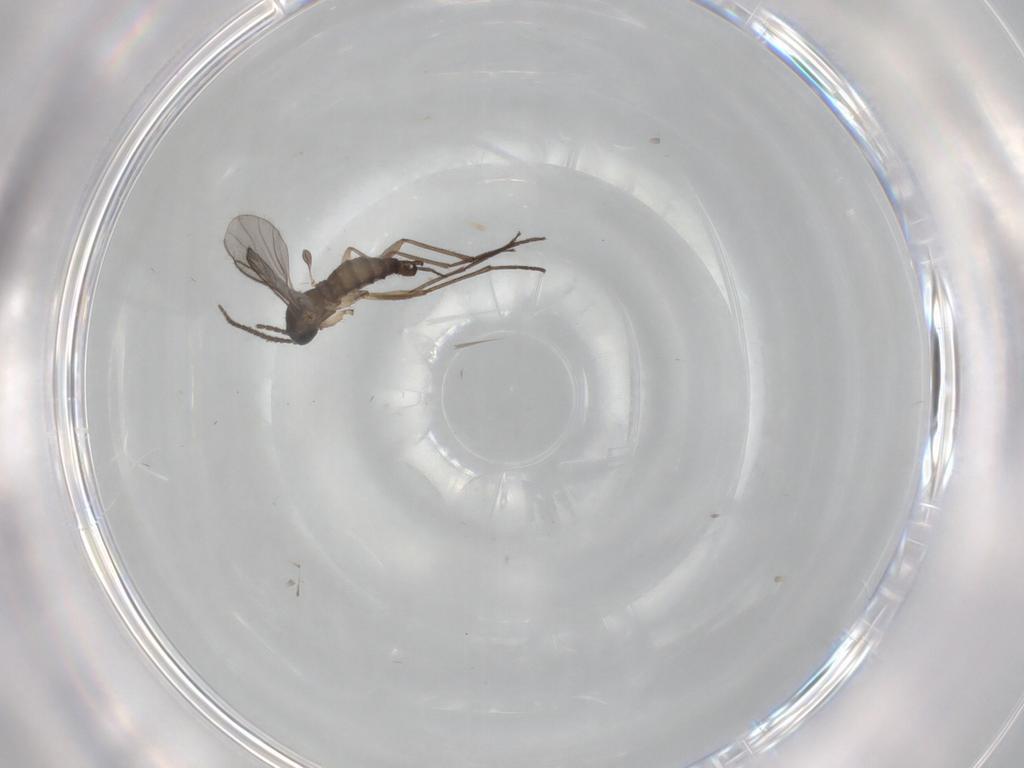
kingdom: Animalia
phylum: Arthropoda
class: Insecta
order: Diptera
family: Sciaridae
